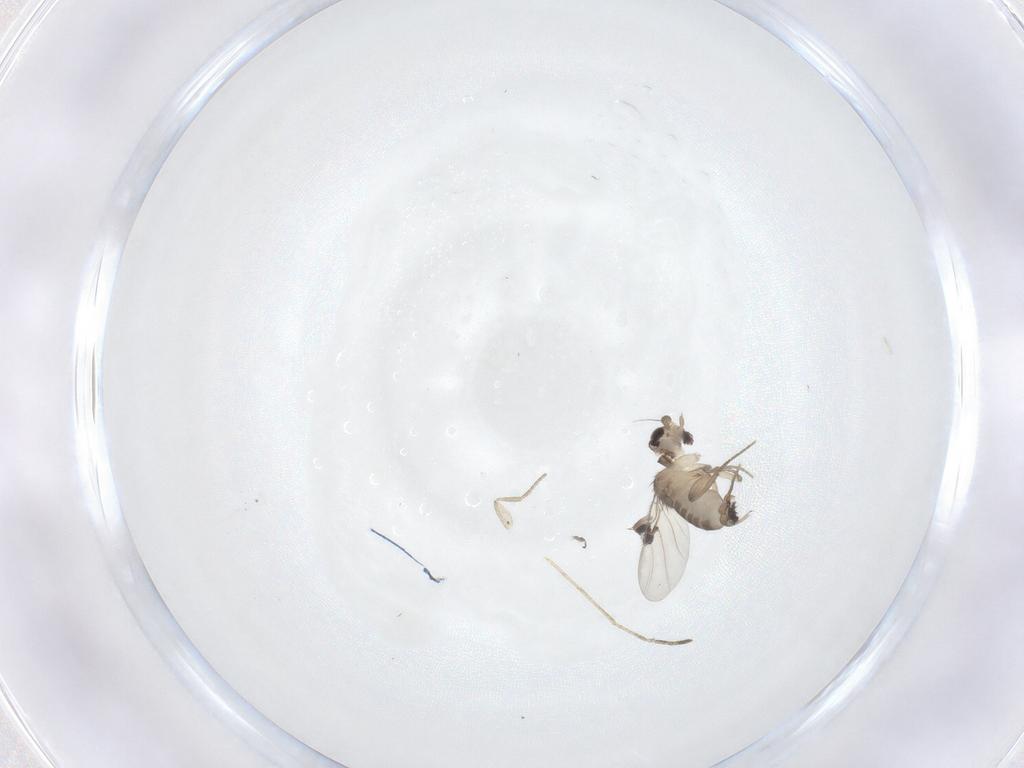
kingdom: Animalia
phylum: Arthropoda
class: Insecta
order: Diptera
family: Phoridae
